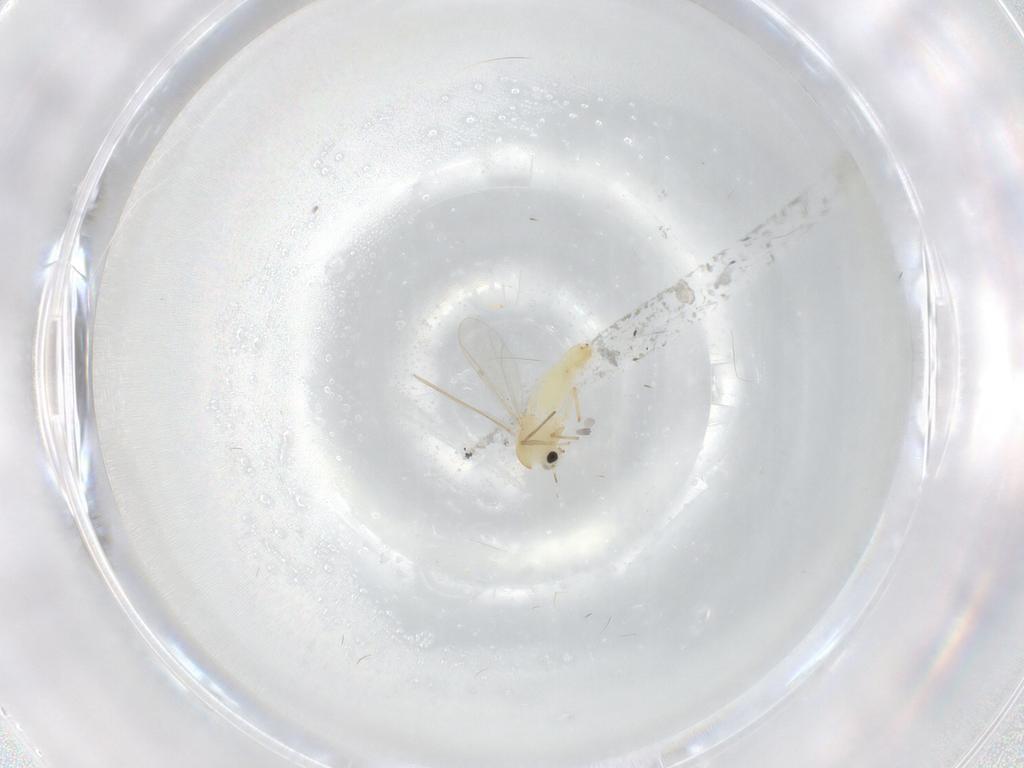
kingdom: Animalia
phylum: Arthropoda
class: Insecta
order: Diptera
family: Chironomidae
